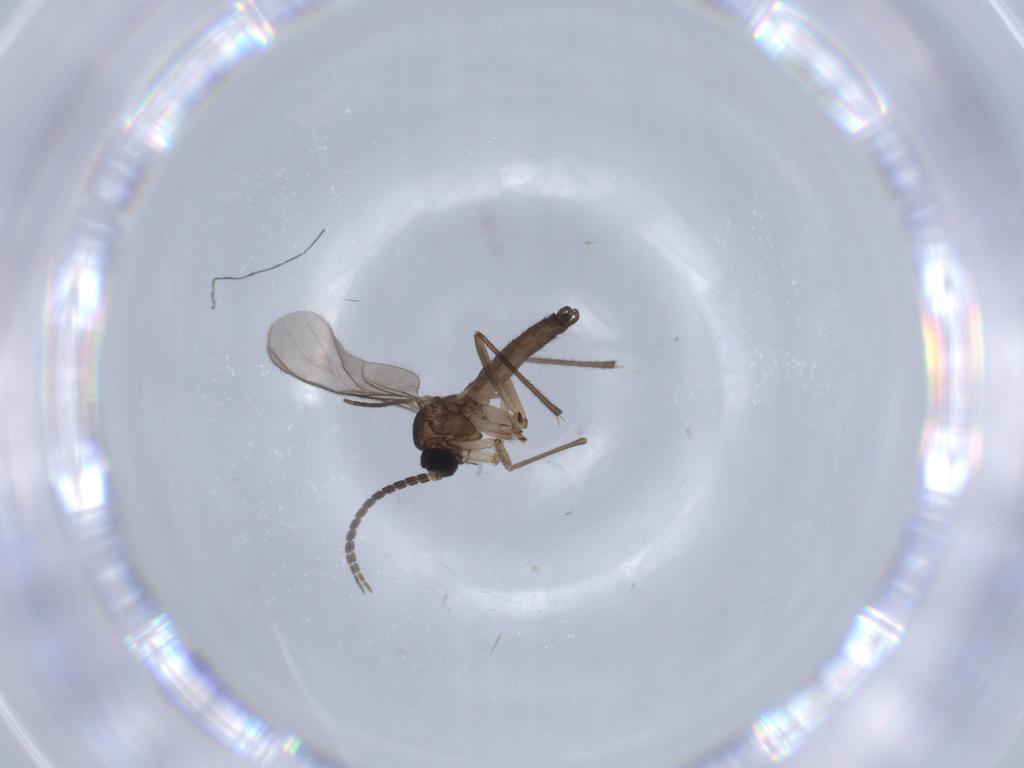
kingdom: Animalia
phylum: Arthropoda
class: Insecta
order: Diptera
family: Sciaridae
